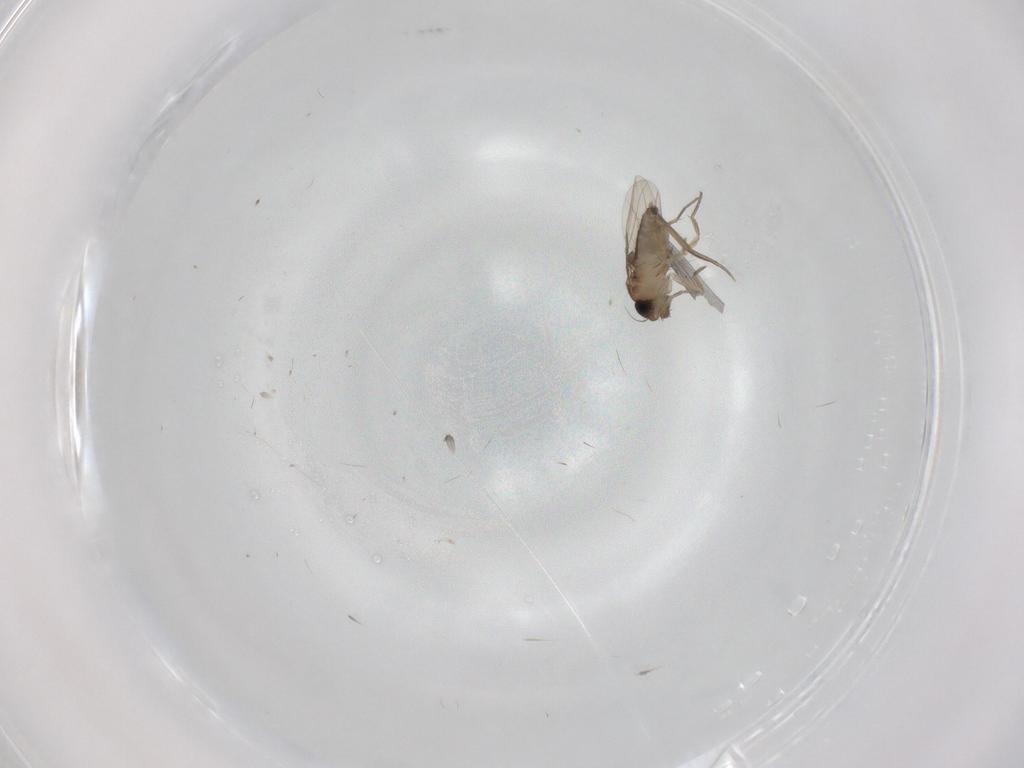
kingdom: Animalia
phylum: Arthropoda
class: Insecta
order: Diptera
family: Phoridae
